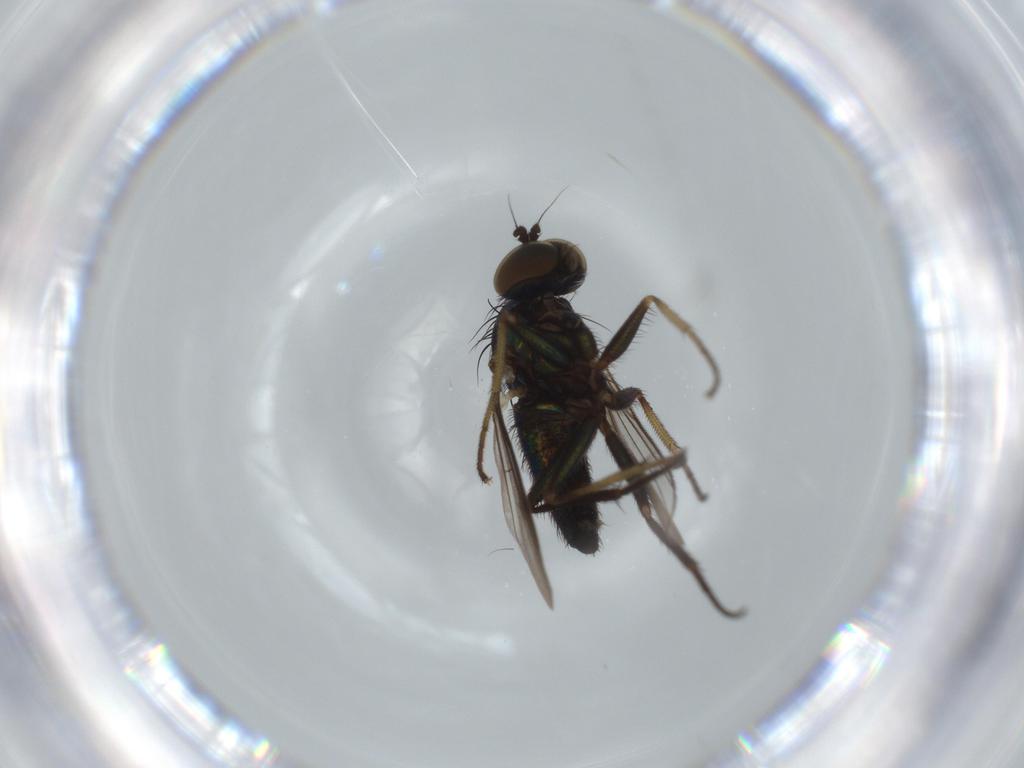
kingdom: Animalia
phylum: Arthropoda
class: Insecta
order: Diptera
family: Dolichopodidae
